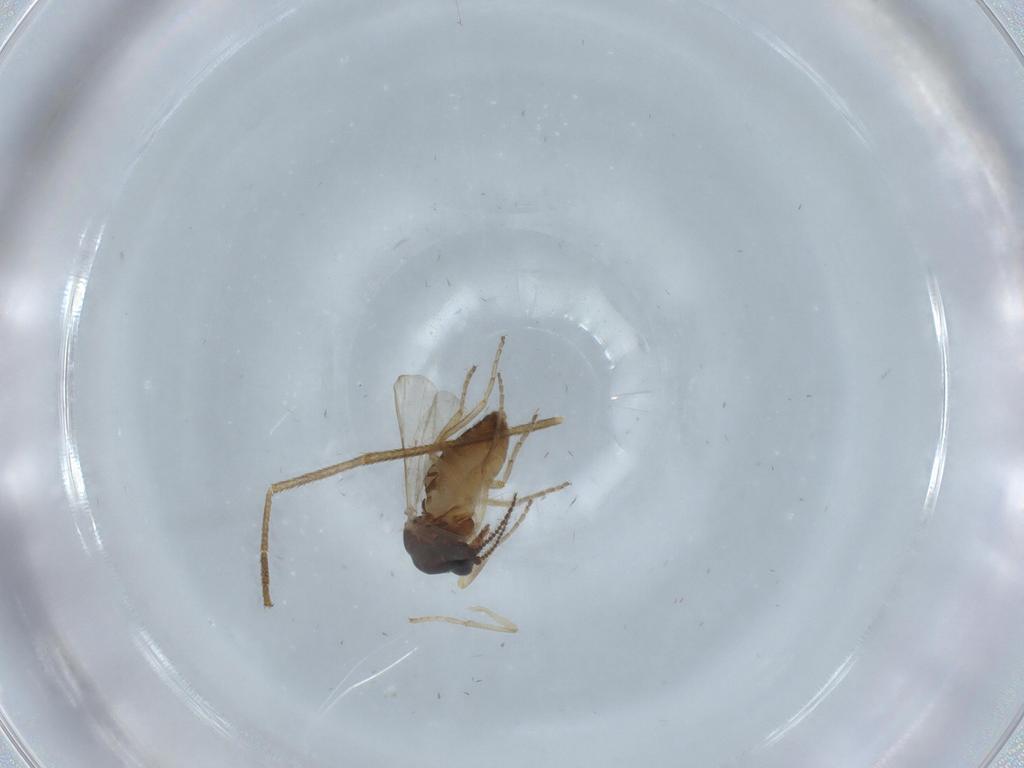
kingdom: Animalia
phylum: Arthropoda
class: Insecta
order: Diptera
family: Ceratopogonidae
